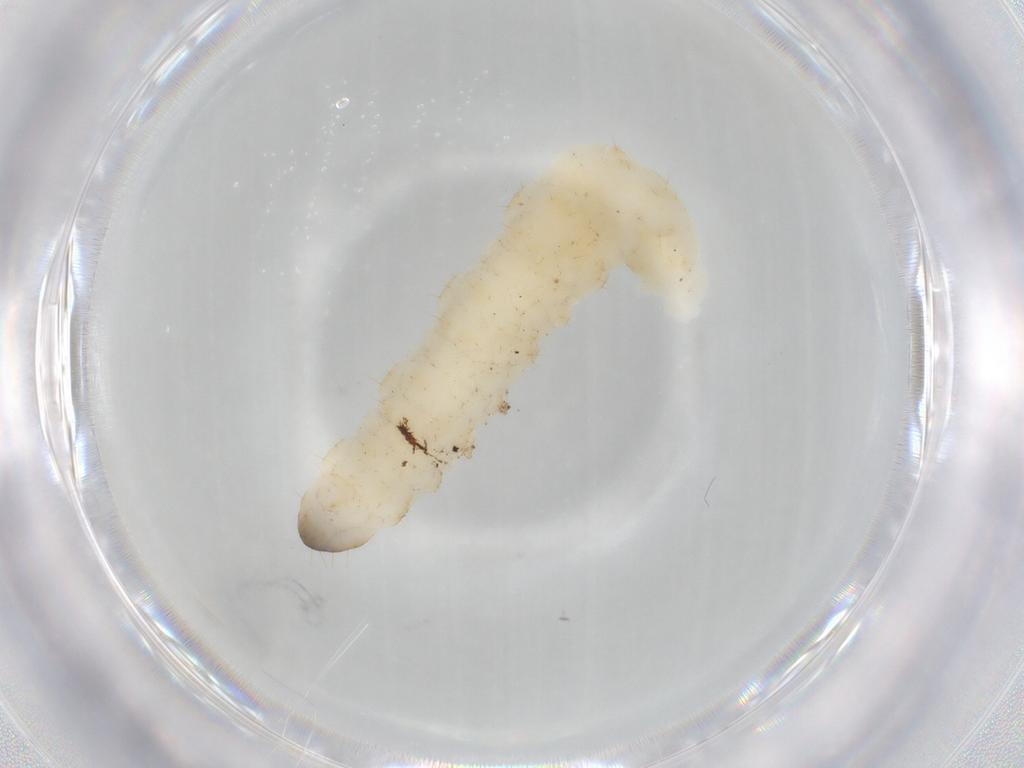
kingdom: Animalia
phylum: Arthropoda
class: Insecta
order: Coleoptera
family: Chrysomelidae
